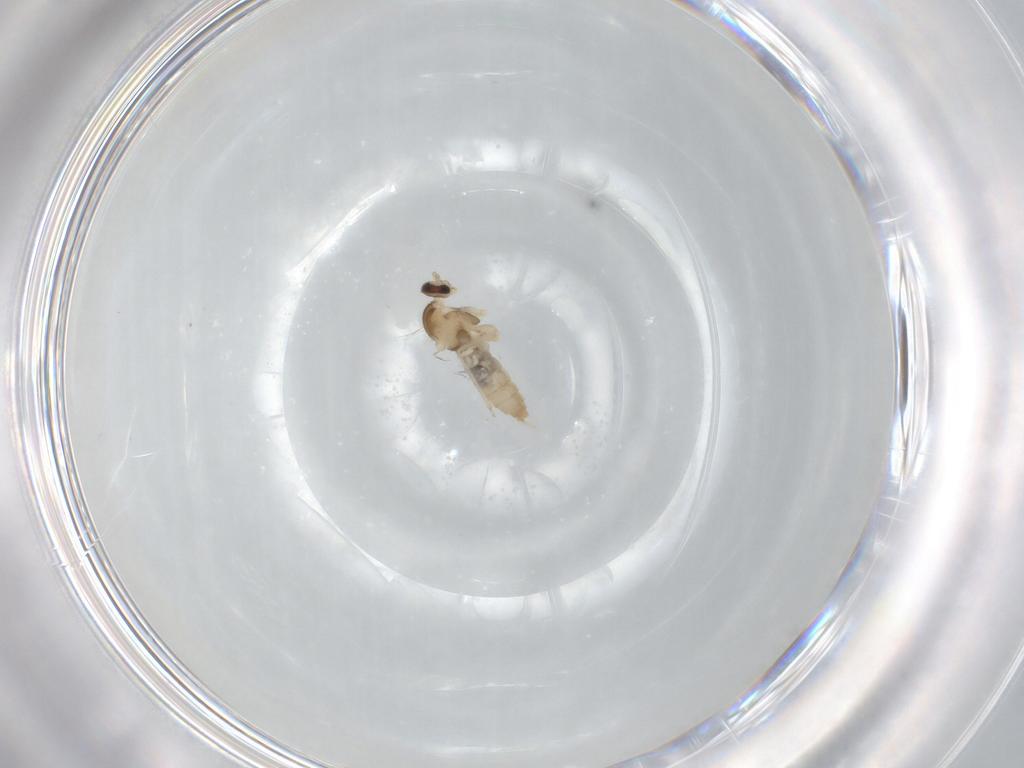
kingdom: Animalia
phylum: Arthropoda
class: Insecta
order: Diptera
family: Cecidomyiidae
